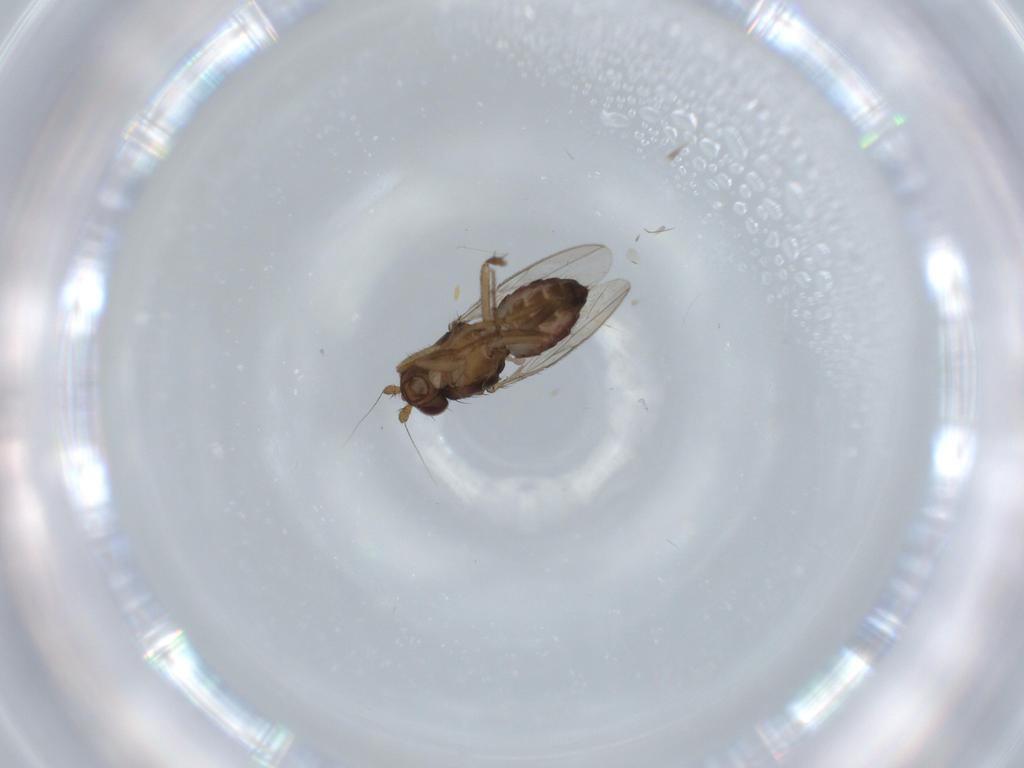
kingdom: Animalia
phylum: Arthropoda
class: Insecta
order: Diptera
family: Sphaeroceridae
